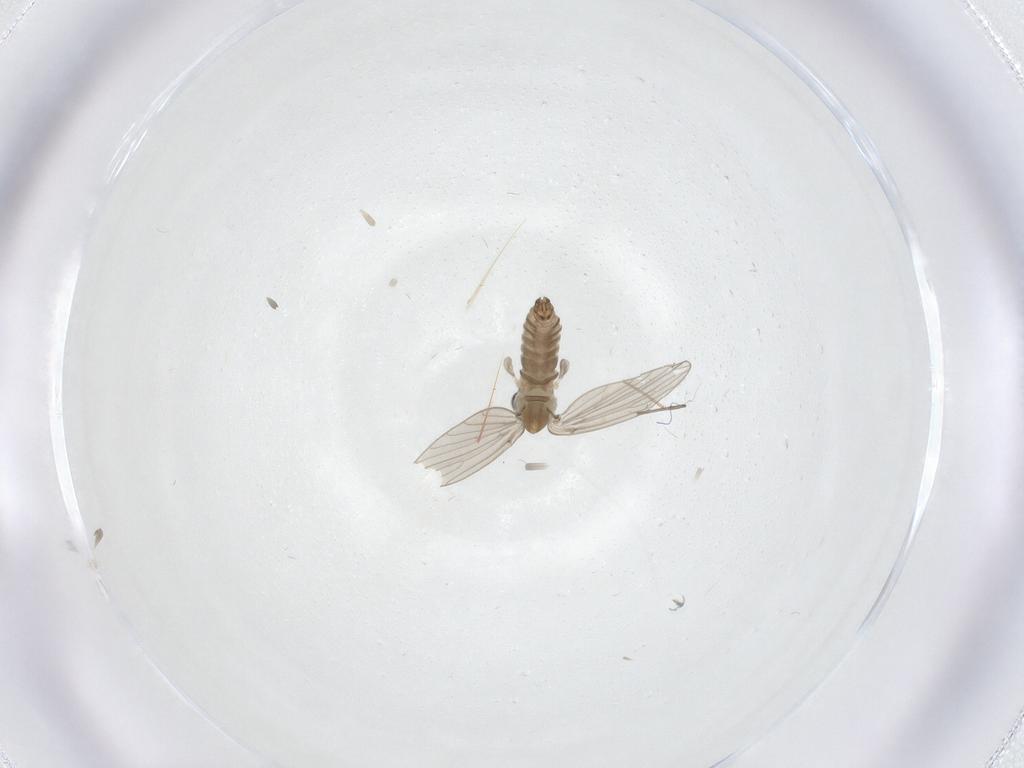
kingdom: Animalia
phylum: Arthropoda
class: Insecta
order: Diptera
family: Psychodidae
